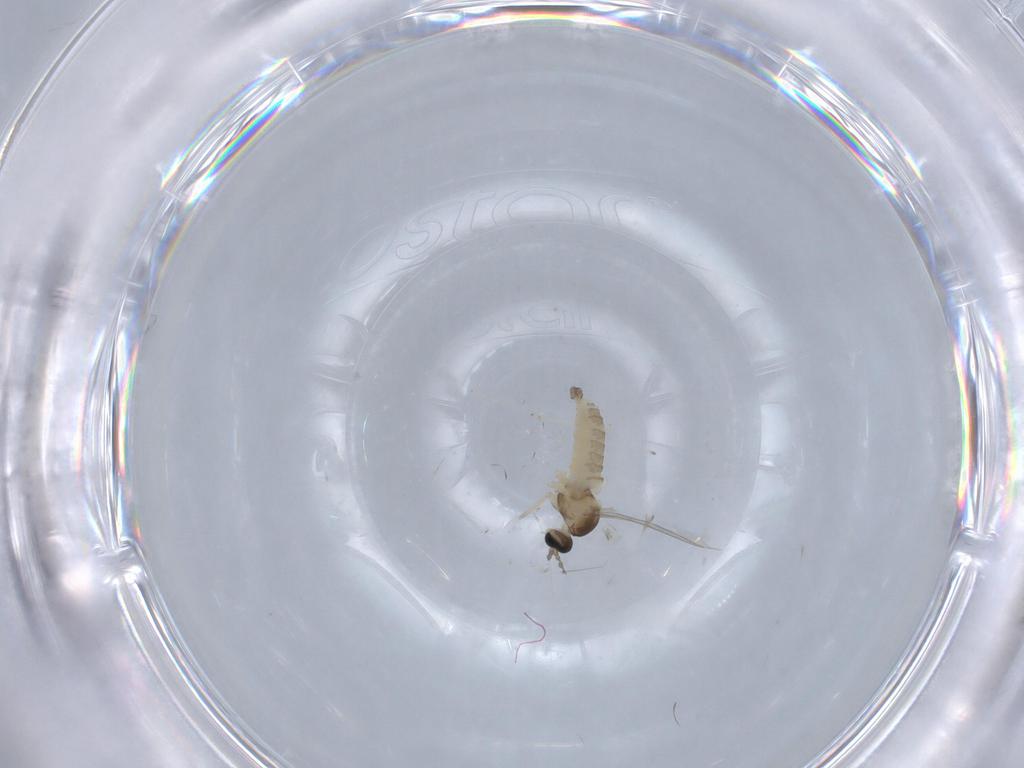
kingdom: Animalia
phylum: Arthropoda
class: Insecta
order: Diptera
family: Cecidomyiidae
